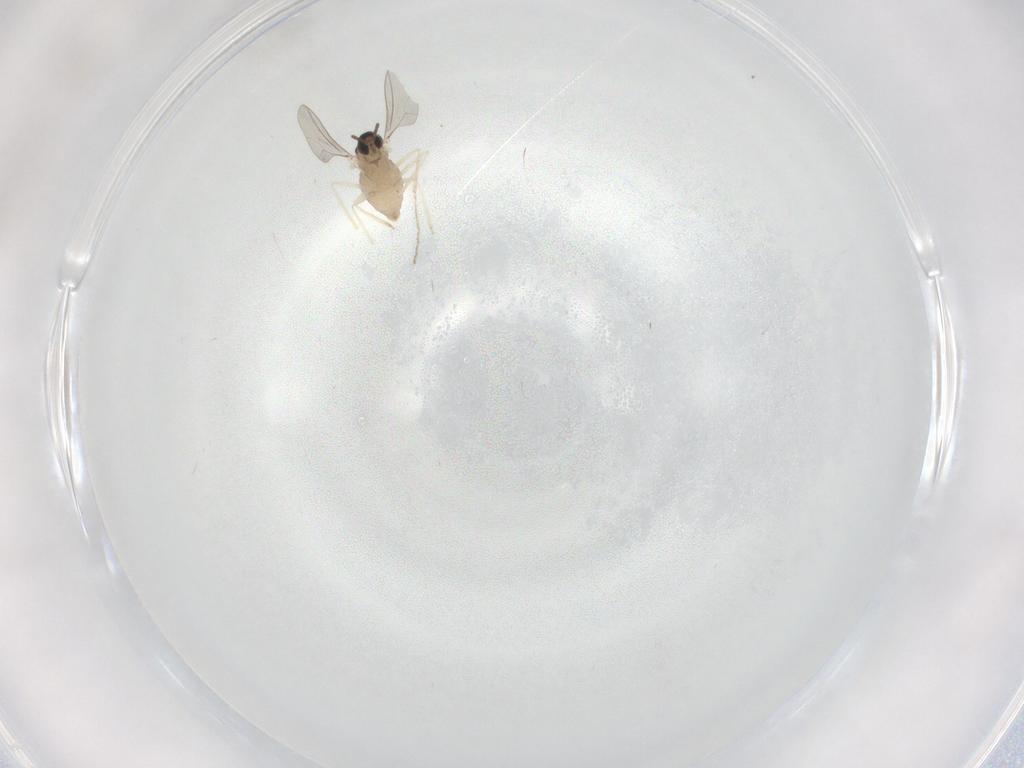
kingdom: Animalia
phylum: Arthropoda
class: Insecta
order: Diptera
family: Cecidomyiidae
